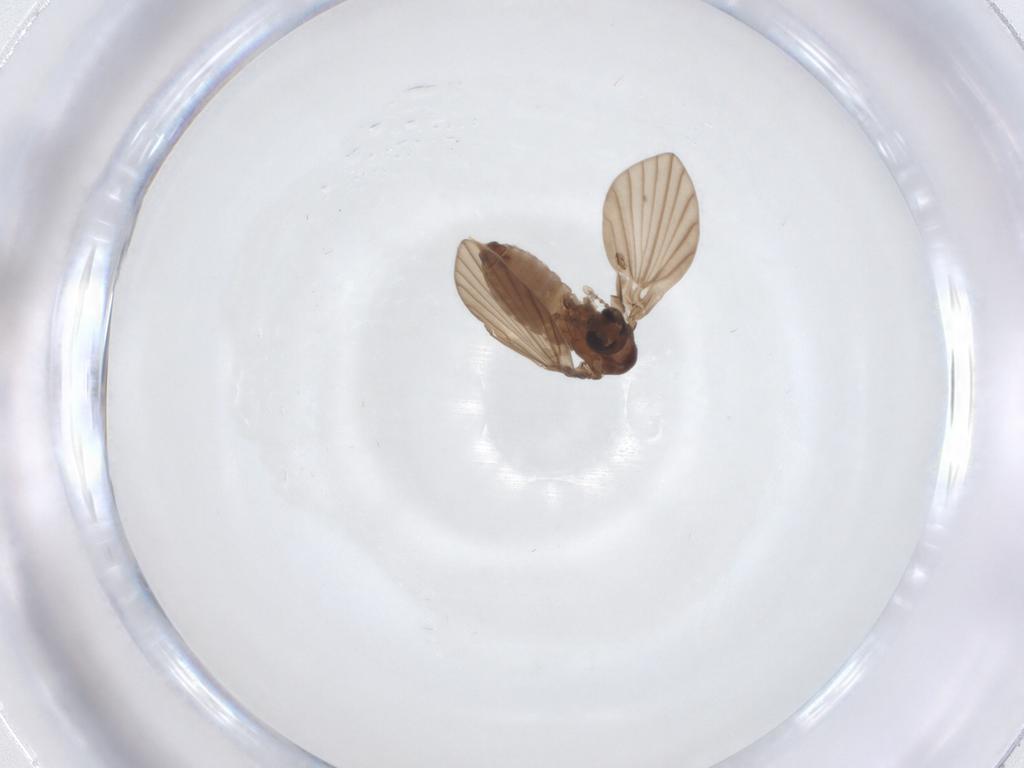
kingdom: Animalia
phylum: Arthropoda
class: Insecta
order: Diptera
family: Psychodidae
